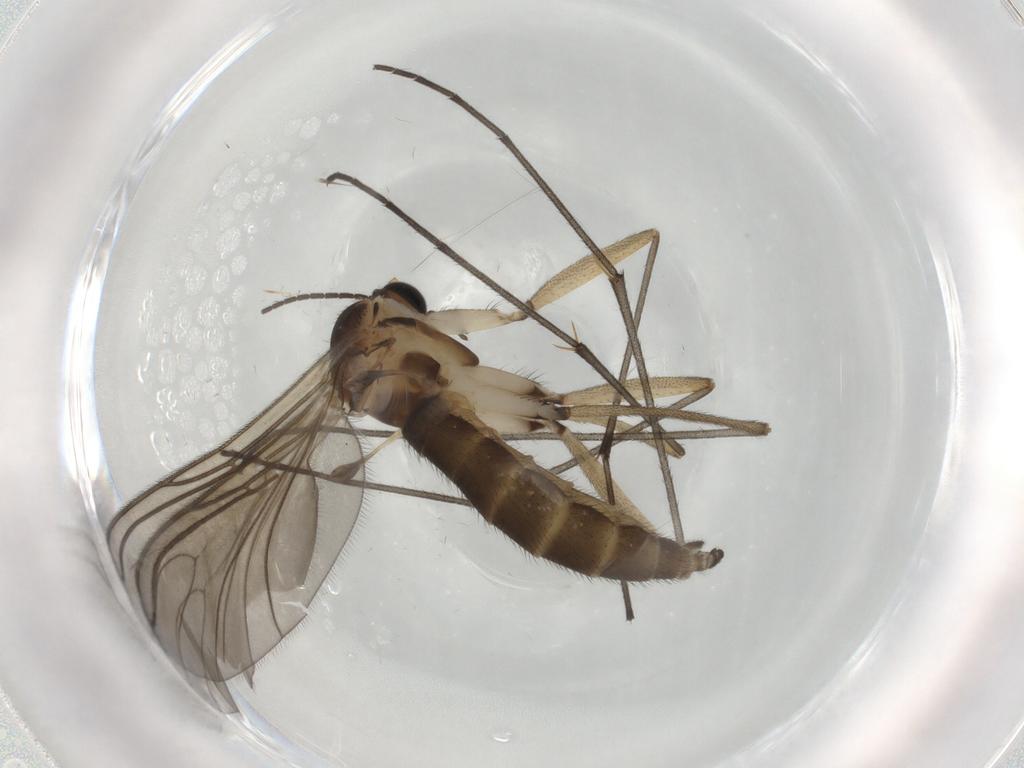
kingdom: Animalia
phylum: Arthropoda
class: Insecta
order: Diptera
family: Sciaridae
